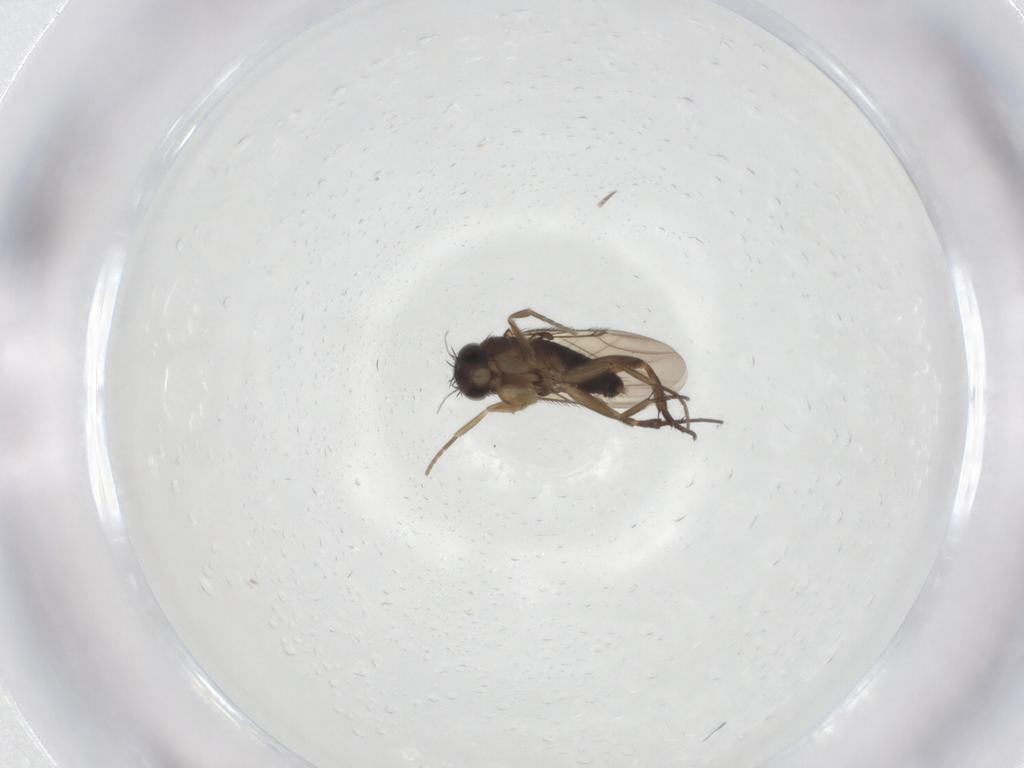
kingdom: Animalia
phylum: Arthropoda
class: Insecta
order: Diptera
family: Phoridae
